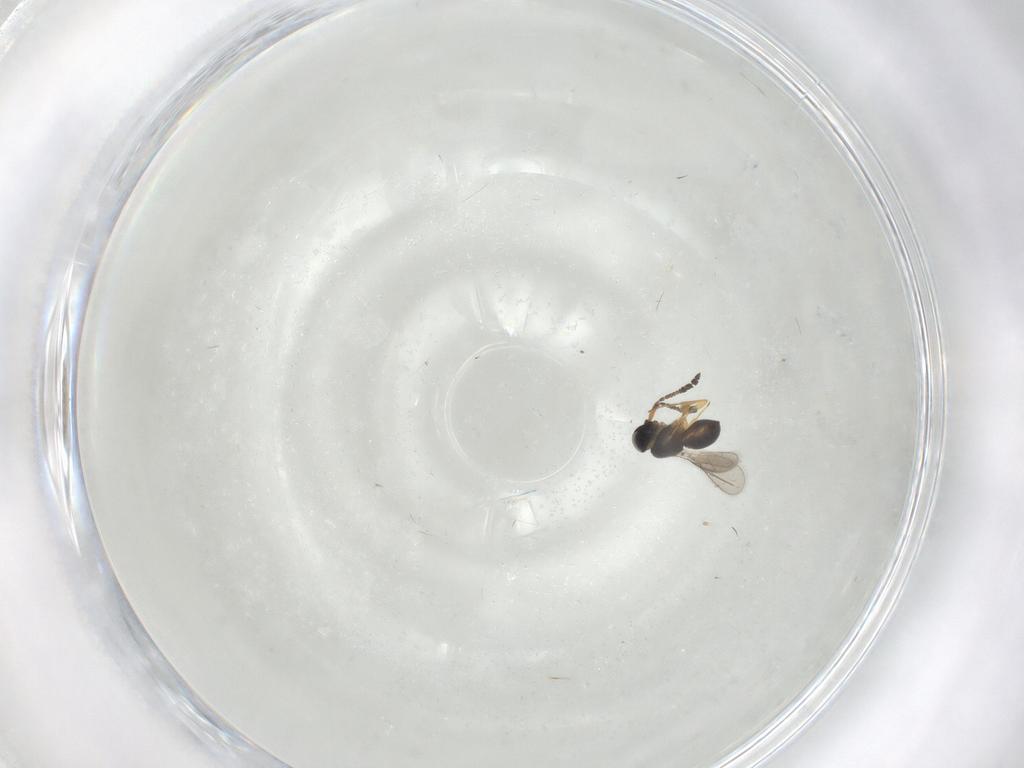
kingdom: Animalia
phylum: Arthropoda
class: Insecta
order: Hymenoptera
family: Scelionidae
